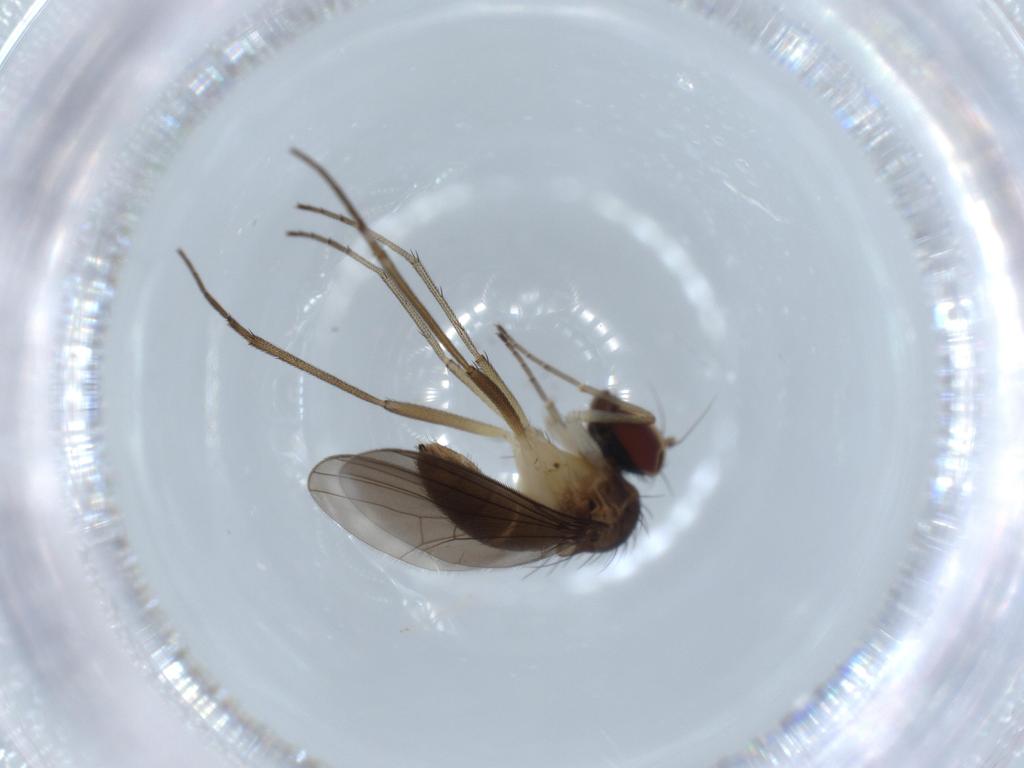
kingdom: Animalia
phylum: Arthropoda
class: Insecta
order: Diptera
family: Dolichopodidae
